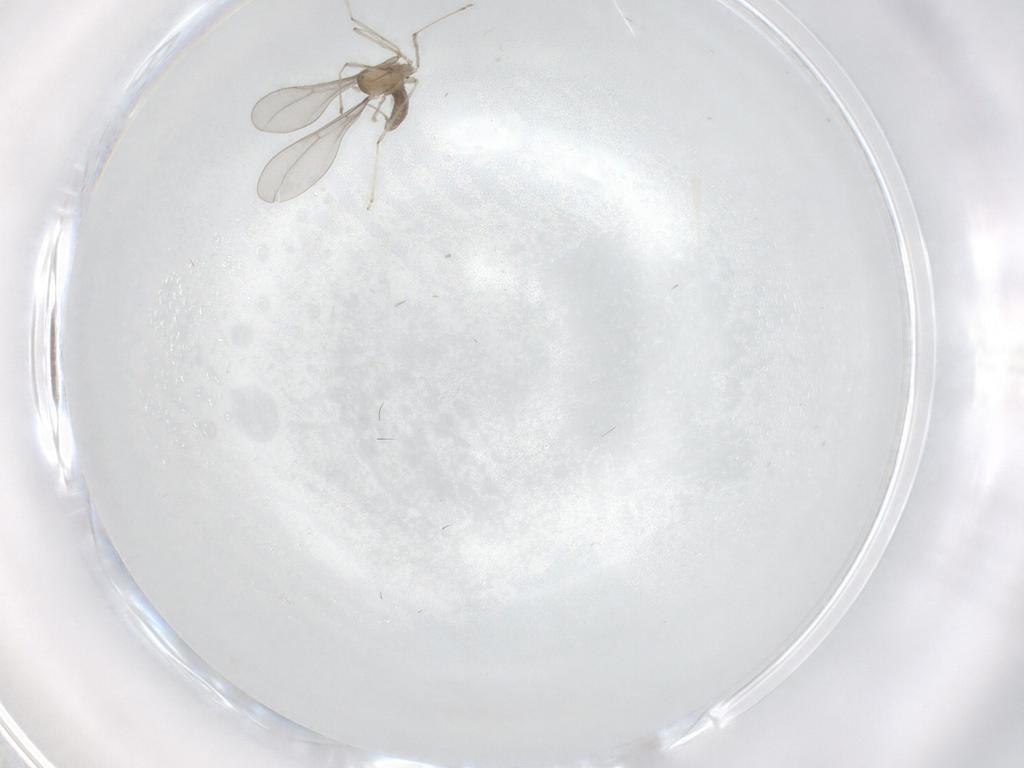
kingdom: Animalia
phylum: Arthropoda
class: Insecta
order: Diptera
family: Cecidomyiidae
